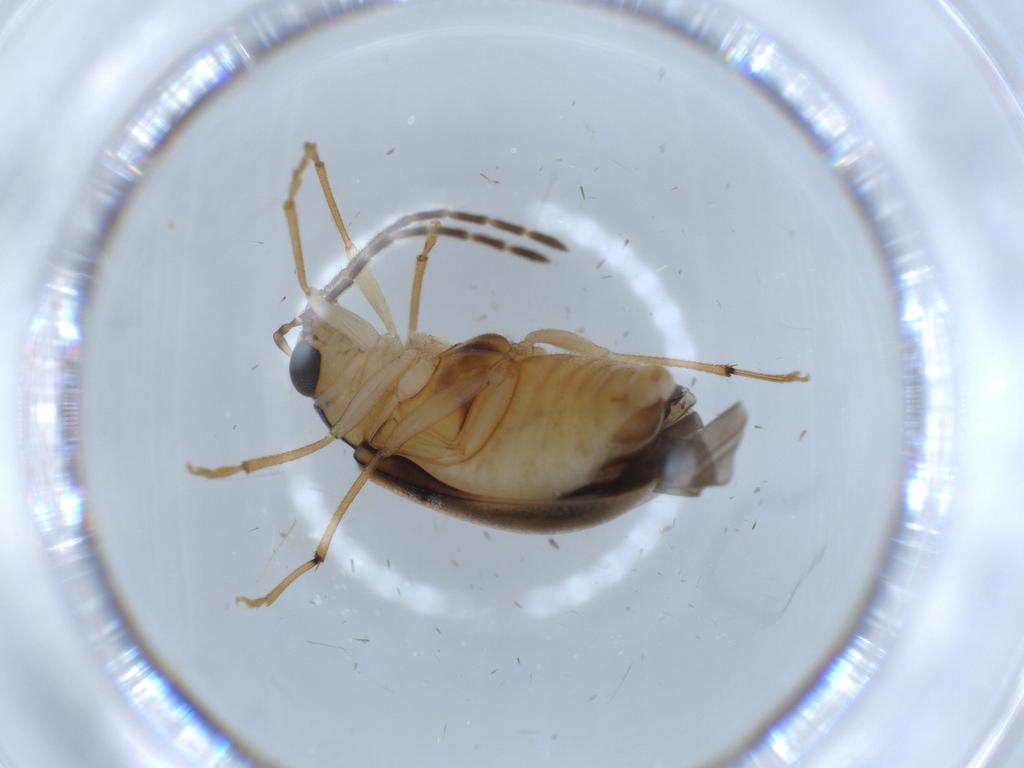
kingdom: Animalia
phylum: Arthropoda
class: Insecta
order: Coleoptera
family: Chrysomelidae
